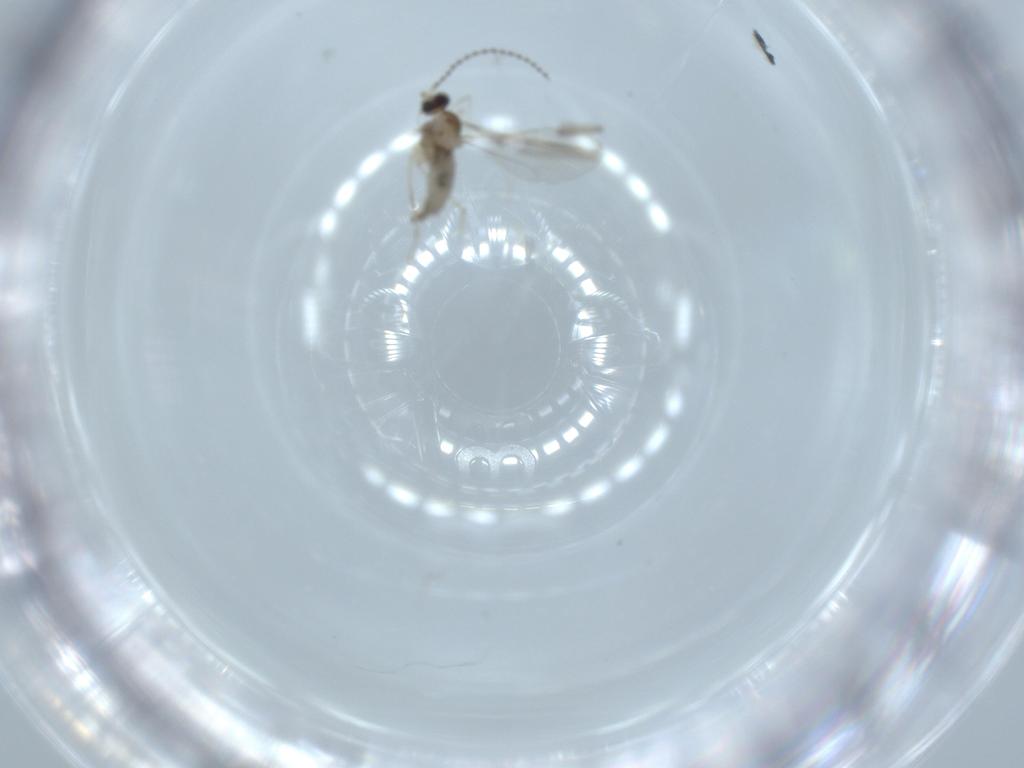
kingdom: Animalia
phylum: Arthropoda
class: Insecta
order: Diptera
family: Cecidomyiidae
